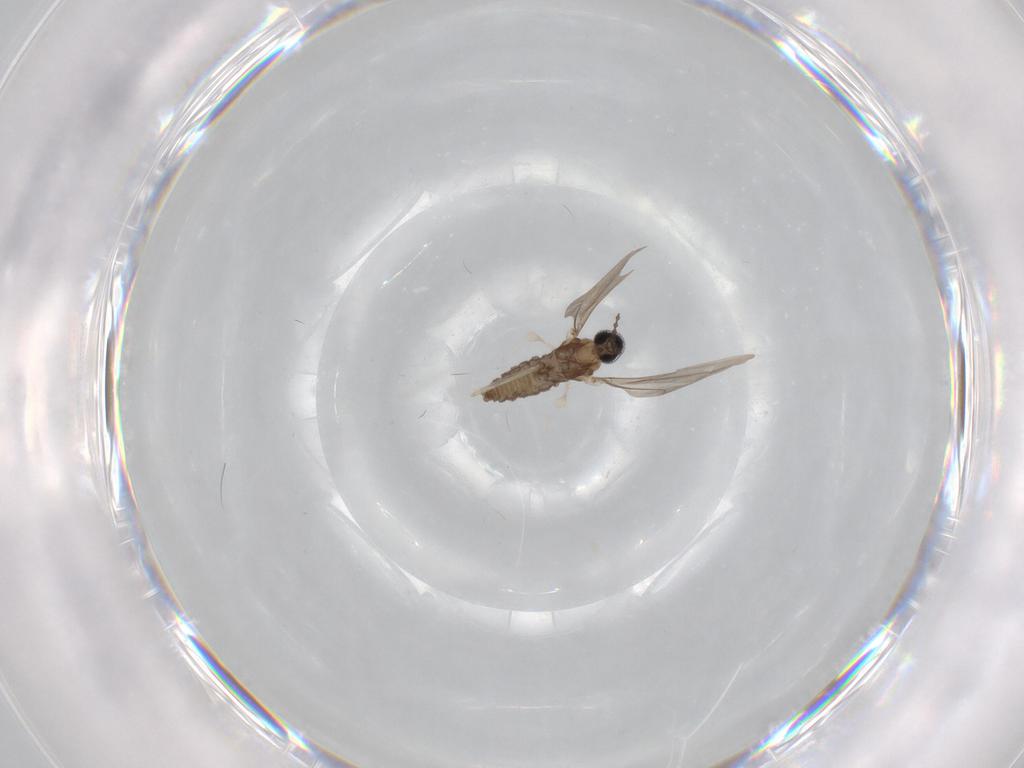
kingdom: Animalia
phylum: Arthropoda
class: Insecta
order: Diptera
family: Cecidomyiidae
